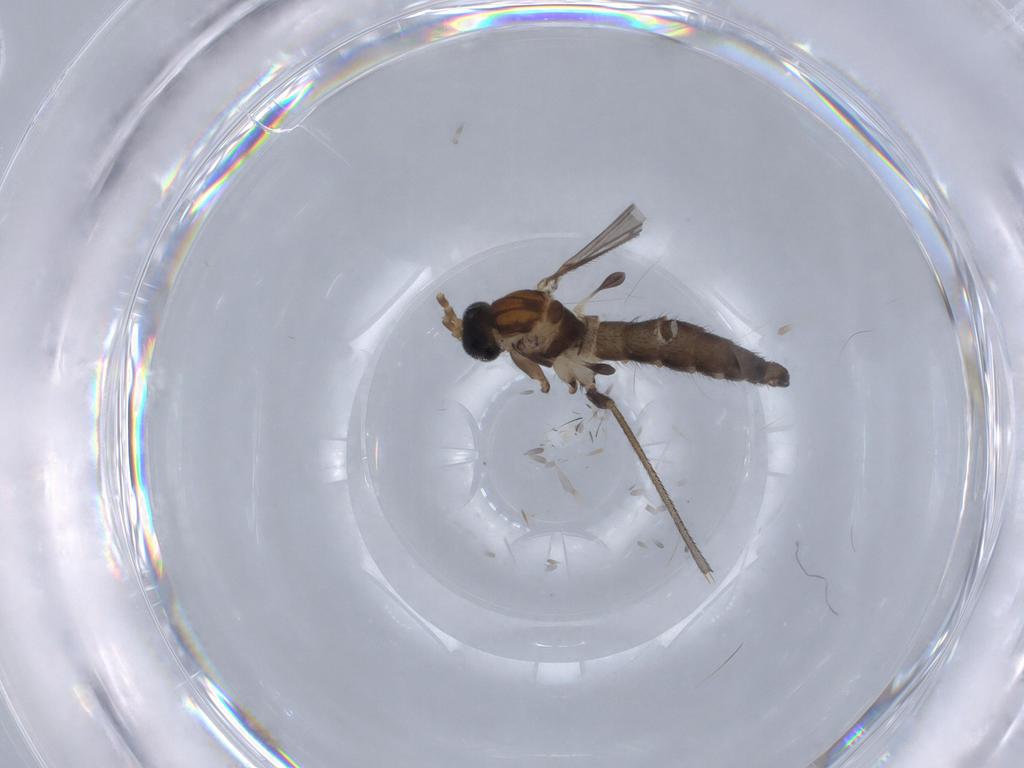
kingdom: Animalia
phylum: Arthropoda
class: Insecta
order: Diptera
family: Sciaridae
